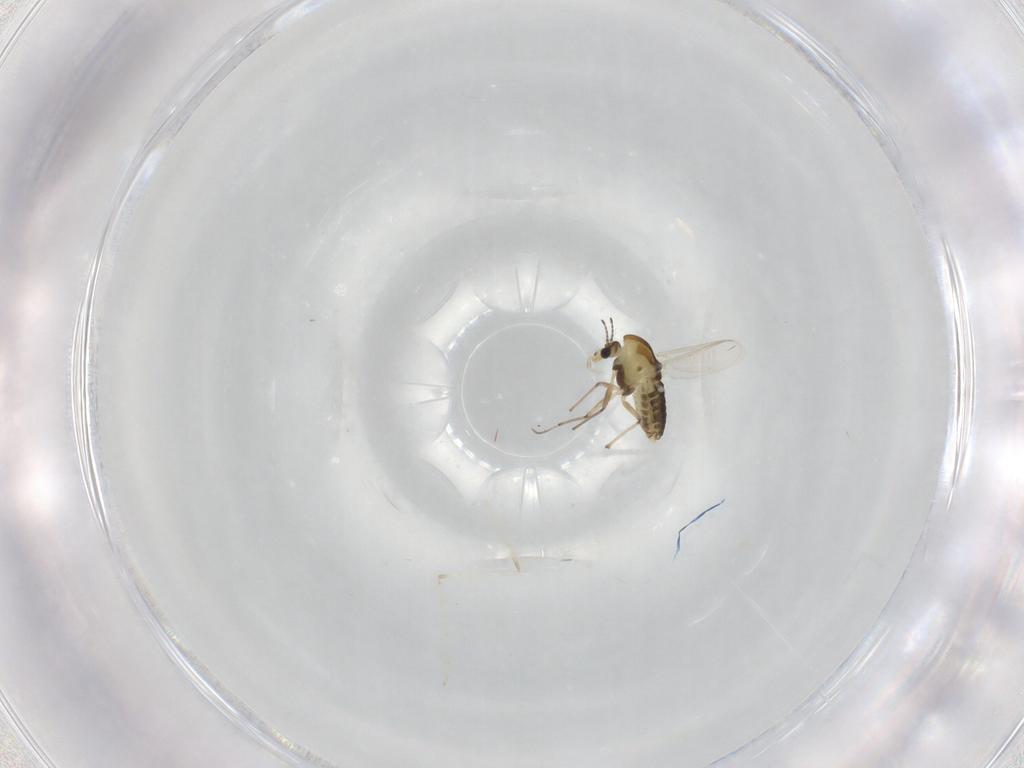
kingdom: Animalia
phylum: Arthropoda
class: Insecta
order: Diptera
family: Chironomidae
